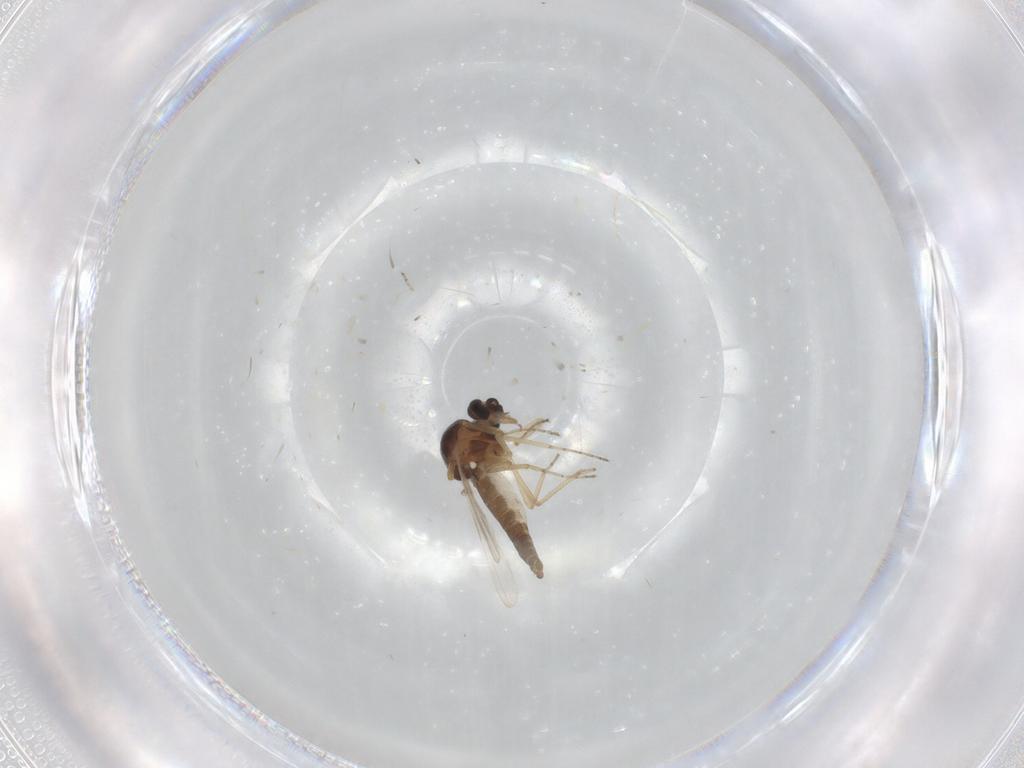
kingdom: Animalia
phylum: Arthropoda
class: Insecta
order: Diptera
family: Ceratopogonidae
